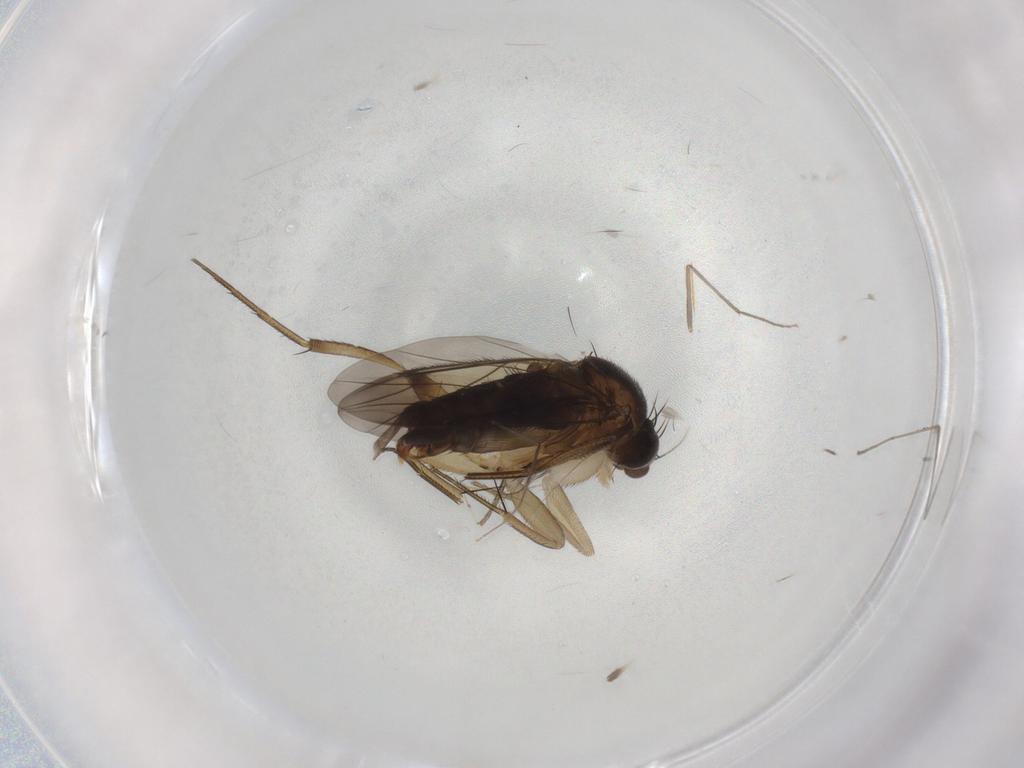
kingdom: Animalia
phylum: Arthropoda
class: Insecta
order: Diptera
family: Phoridae
